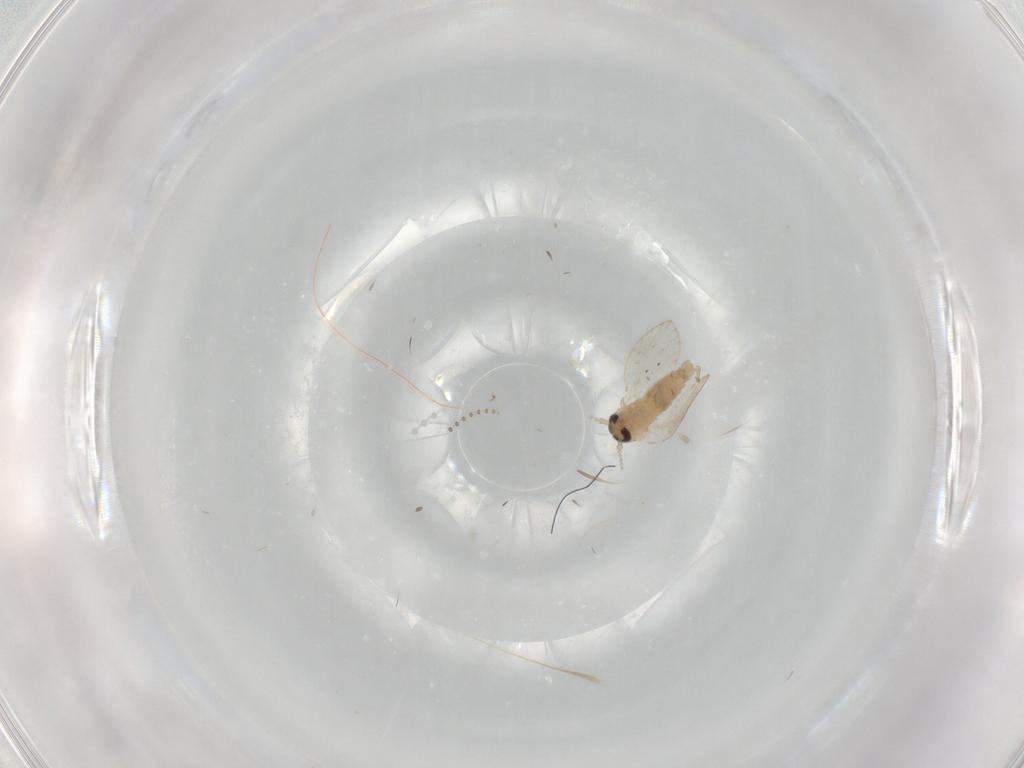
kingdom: Animalia
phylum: Arthropoda
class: Insecta
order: Diptera
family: Psychodidae
